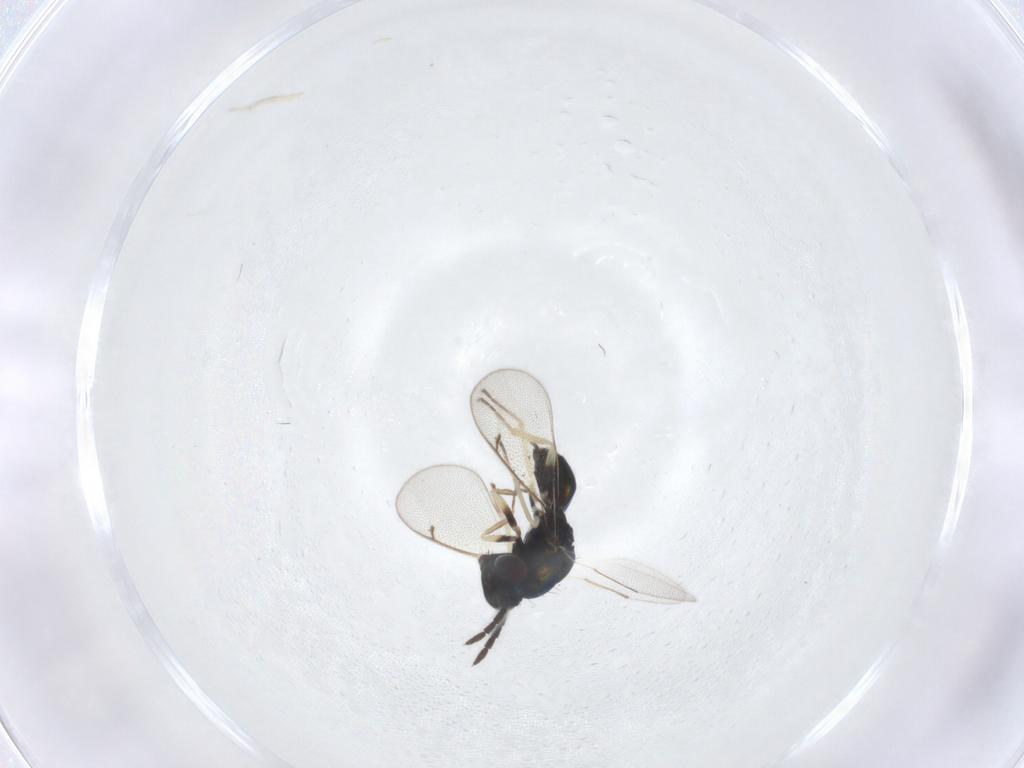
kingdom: Animalia
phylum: Arthropoda
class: Insecta
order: Hymenoptera
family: Eulophidae
